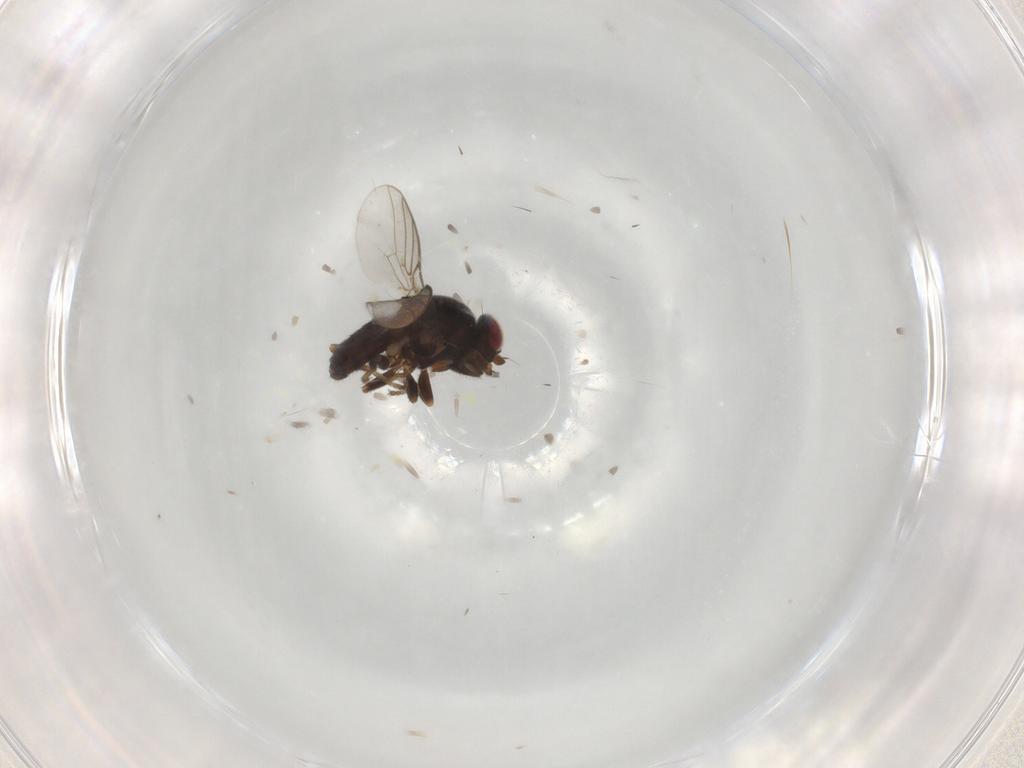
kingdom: Animalia
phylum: Arthropoda
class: Insecta
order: Diptera
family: Chloropidae
